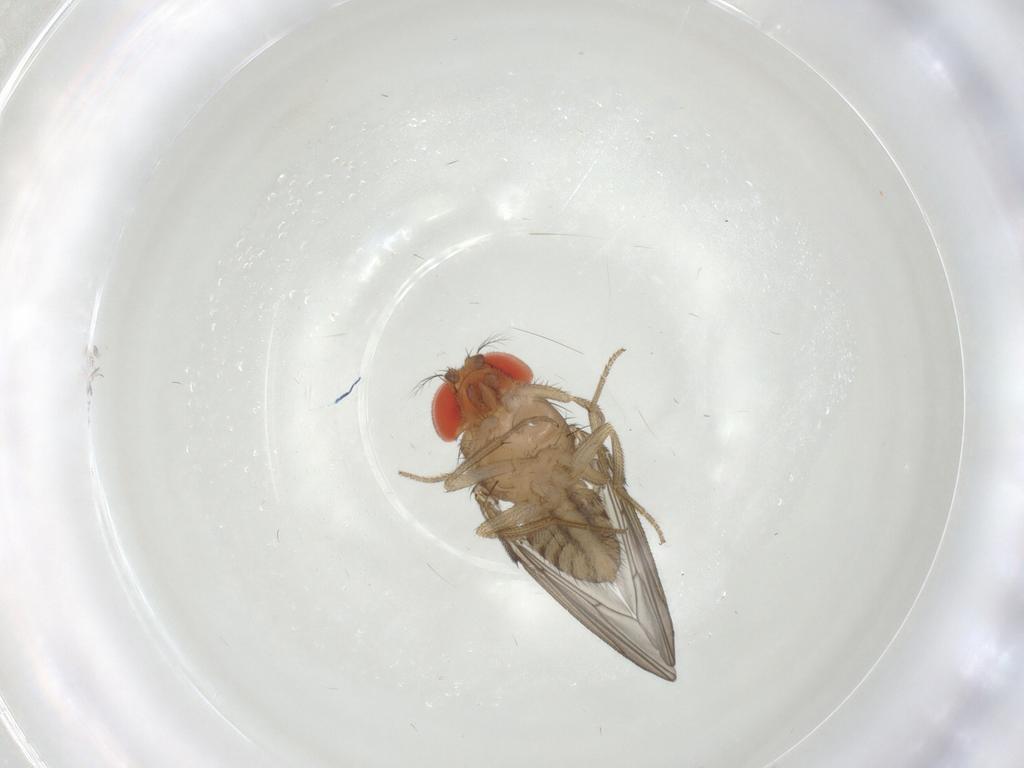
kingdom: Animalia
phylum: Arthropoda
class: Insecta
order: Diptera
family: Drosophilidae
